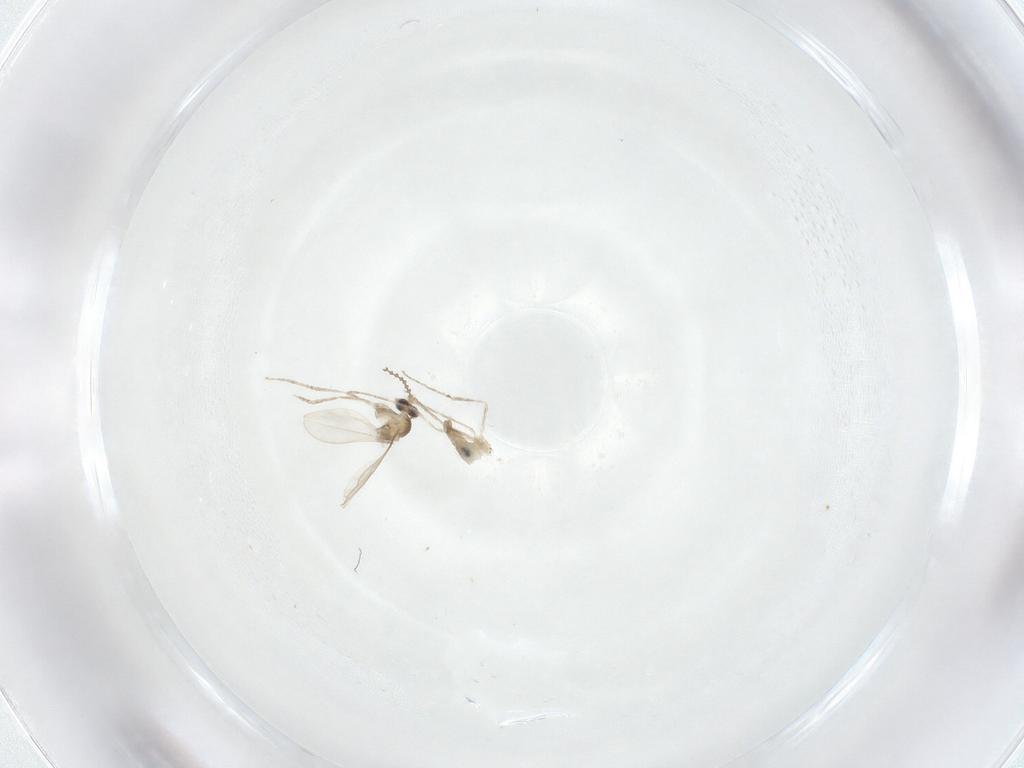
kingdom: Animalia
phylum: Arthropoda
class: Insecta
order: Diptera
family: Cecidomyiidae
